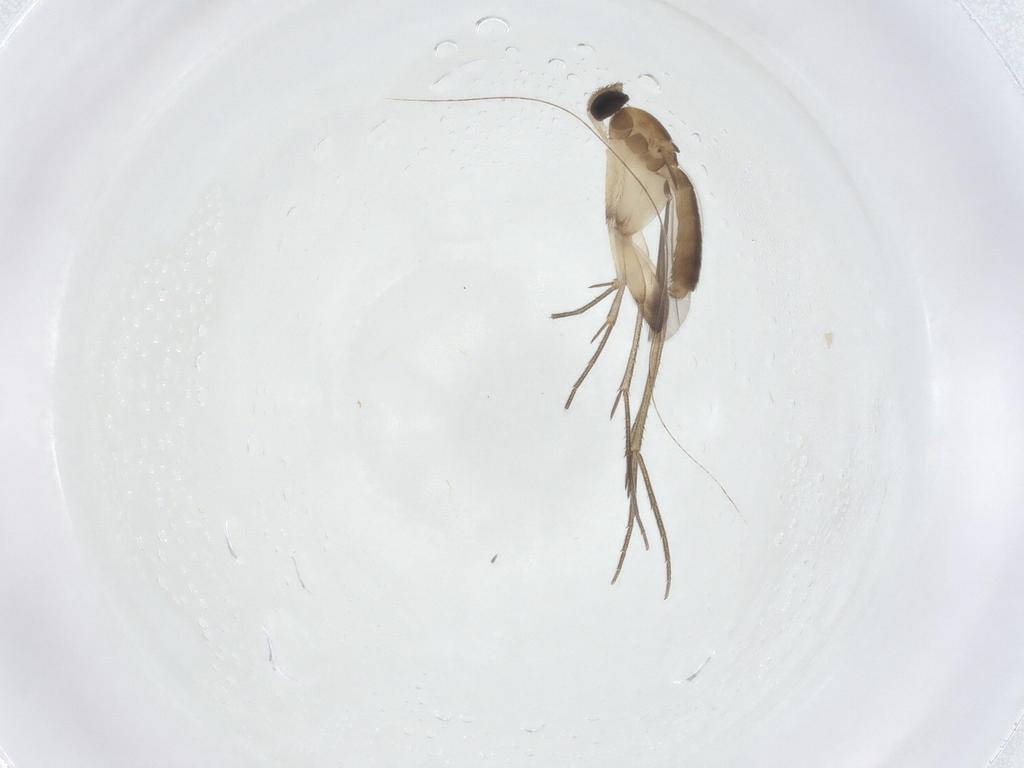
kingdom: Animalia
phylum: Arthropoda
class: Insecta
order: Diptera
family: Mycetophilidae
